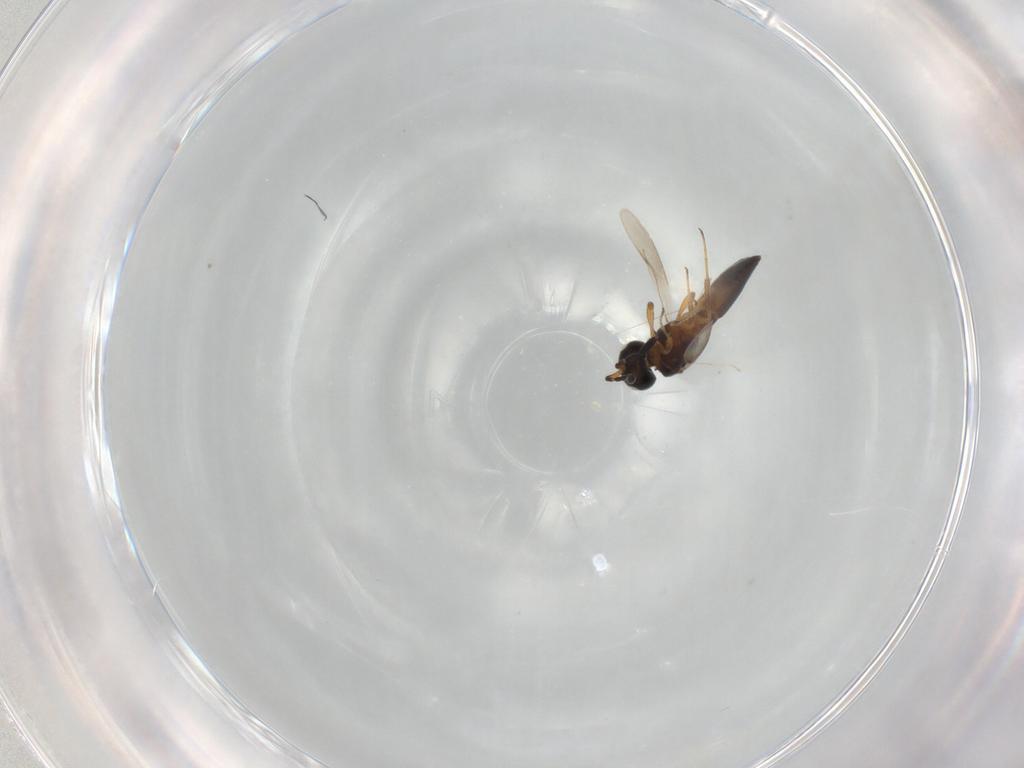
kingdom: Animalia
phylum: Arthropoda
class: Insecta
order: Hymenoptera
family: Scelionidae
